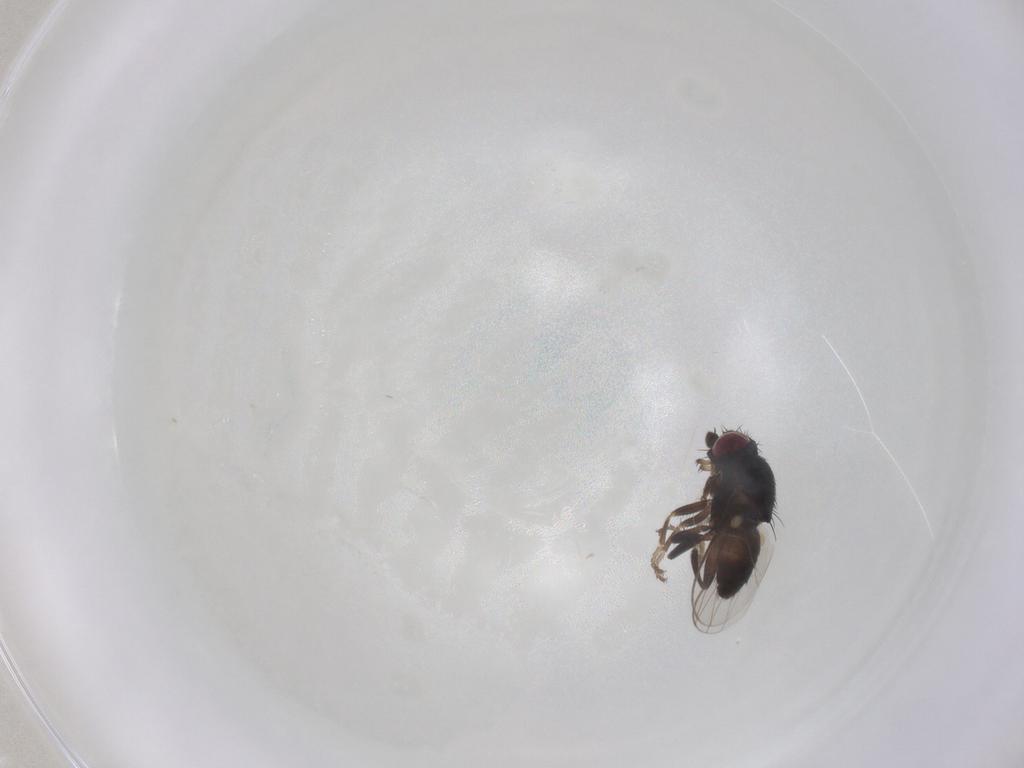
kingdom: Animalia
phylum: Arthropoda
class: Insecta
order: Diptera
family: Milichiidae
